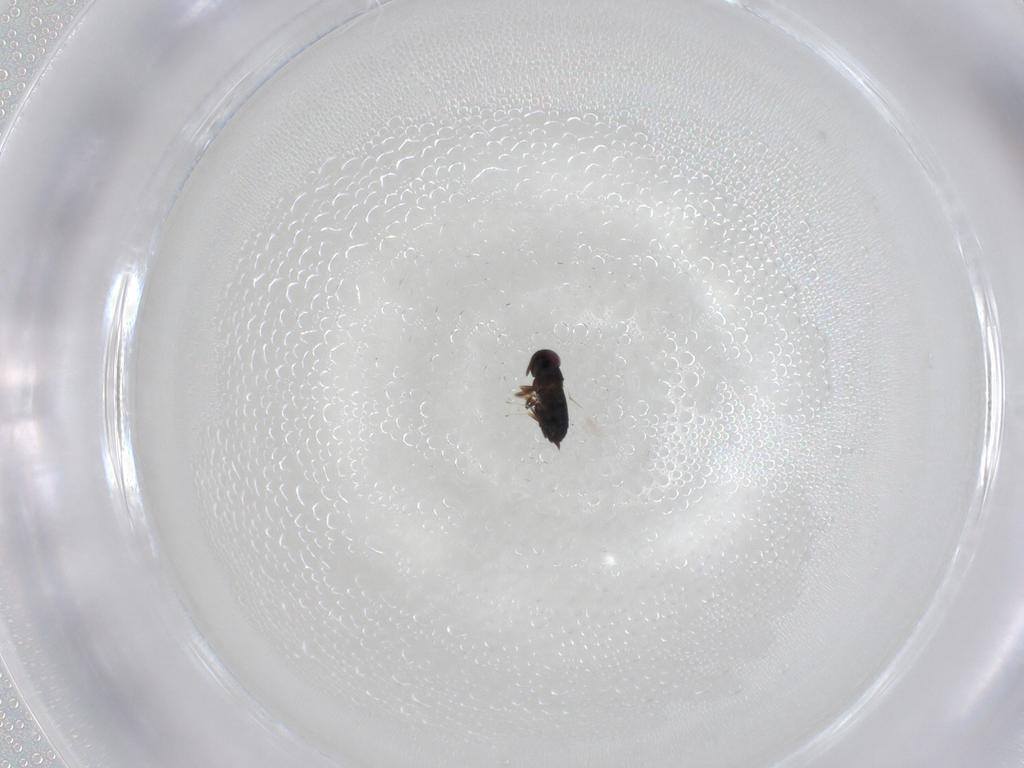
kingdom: Animalia
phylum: Arthropoda
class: Insecta
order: Hymenoptera
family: Signiphoridae
